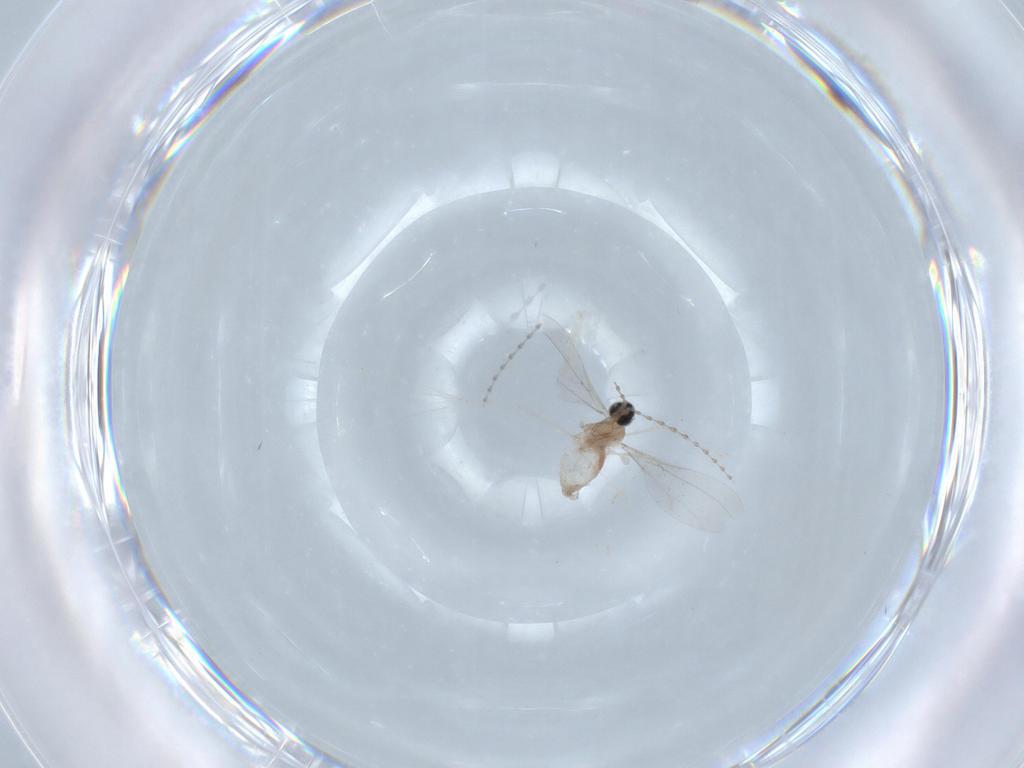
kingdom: Animalia
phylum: Arthropoda
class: Insecta
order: Diptera
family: Cecidomyiidae
